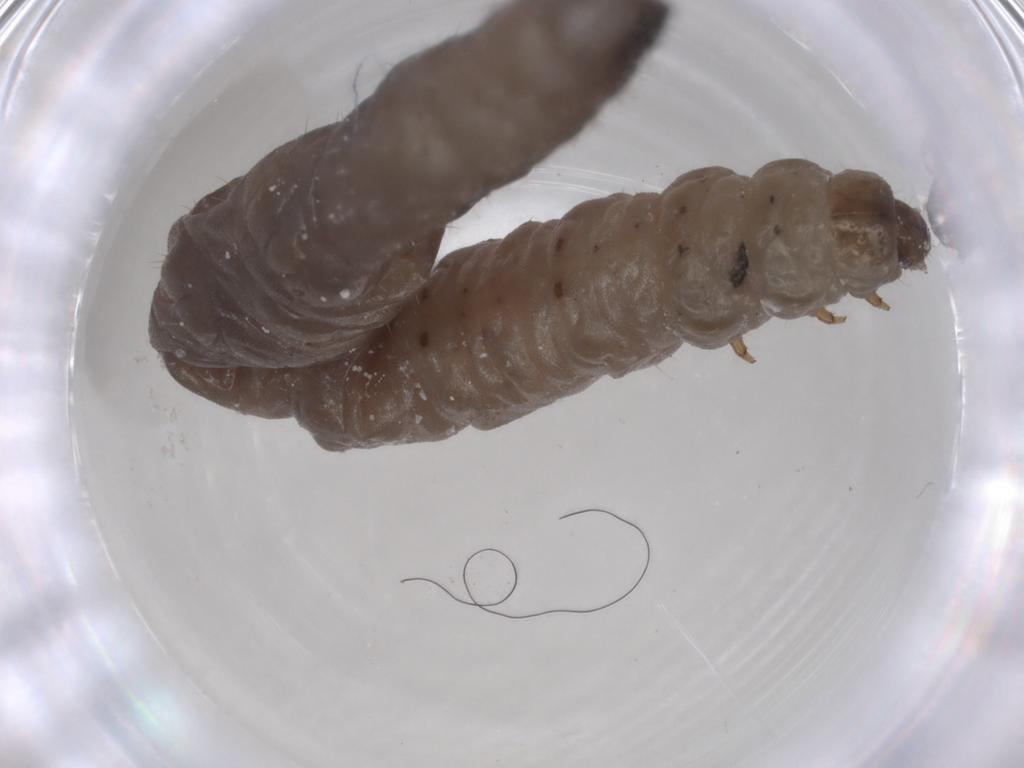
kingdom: Animalia
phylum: Arthropoda
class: Insecta
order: Coleoptera
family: Chrysomelidae
